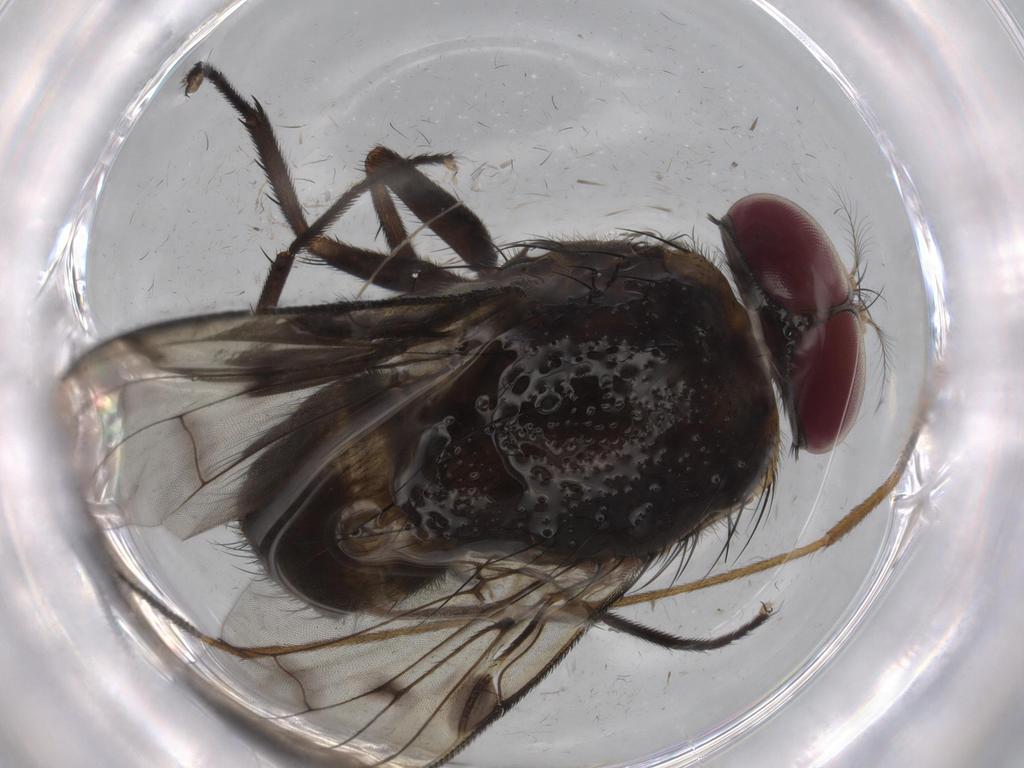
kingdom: Animalia
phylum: Arthropoda
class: Insecta
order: Diptera
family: Muscidae
